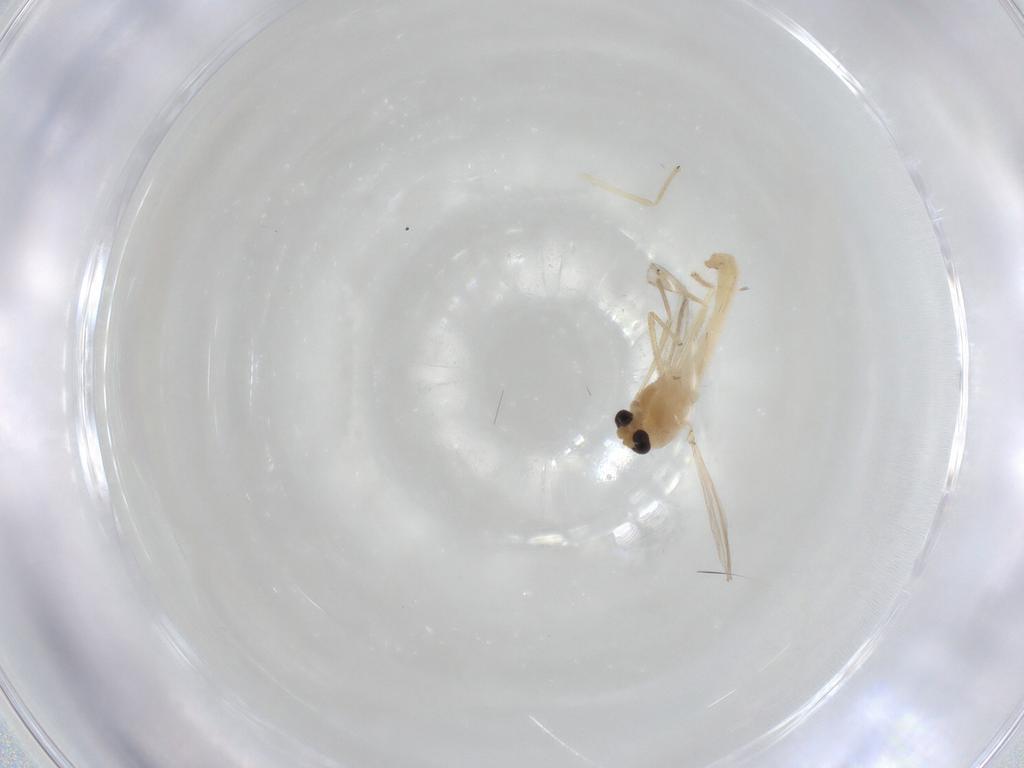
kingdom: Animalia
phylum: Arthropoda
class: Insecta
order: Diptera
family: Chironomidae
